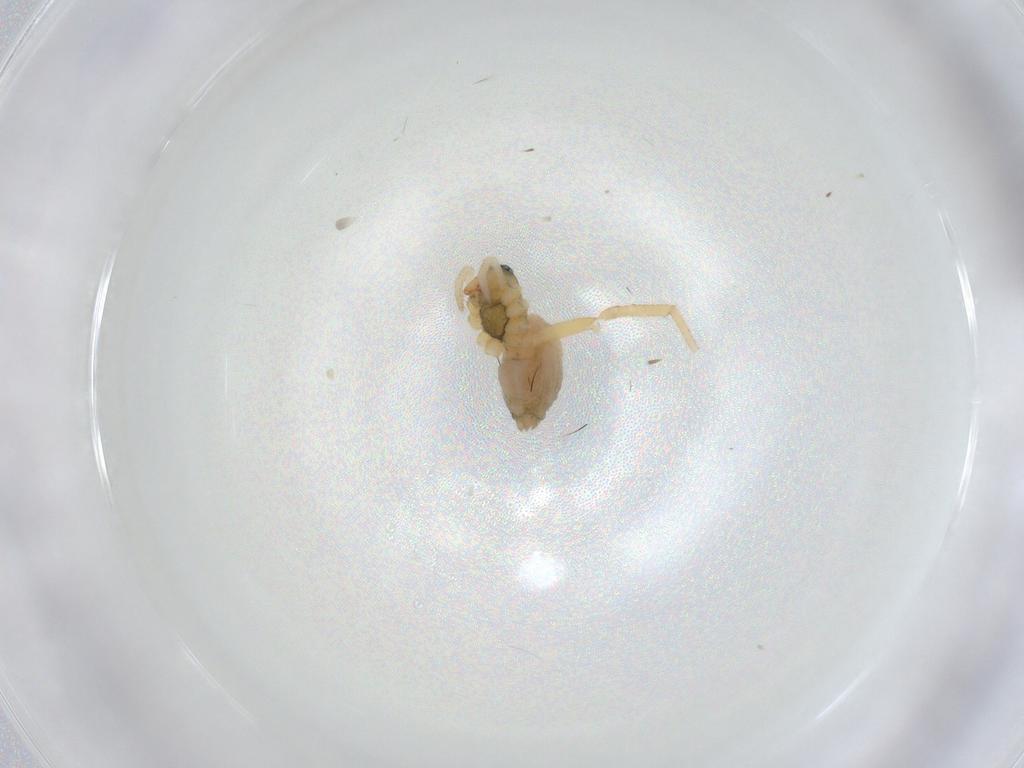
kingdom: Animalia
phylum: Arthropoda
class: Arachnida
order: Araneae
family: Linyphiidae
